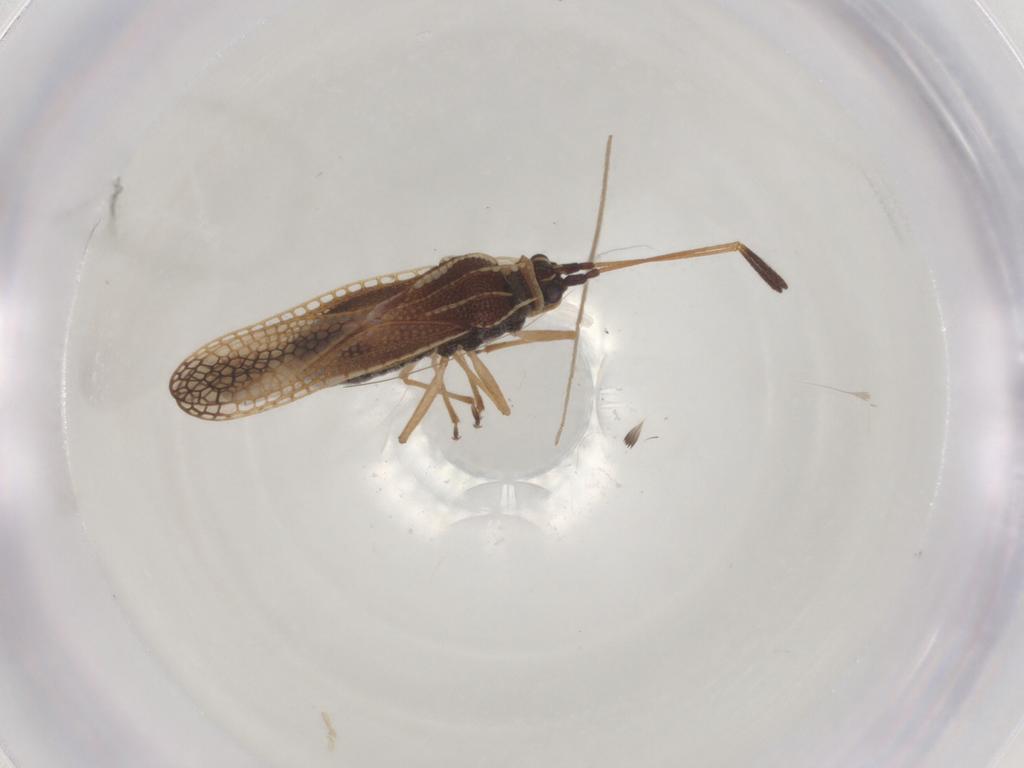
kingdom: Animalia
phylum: Arthropoda
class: Insecta
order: Hemiptera
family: Tingidae
